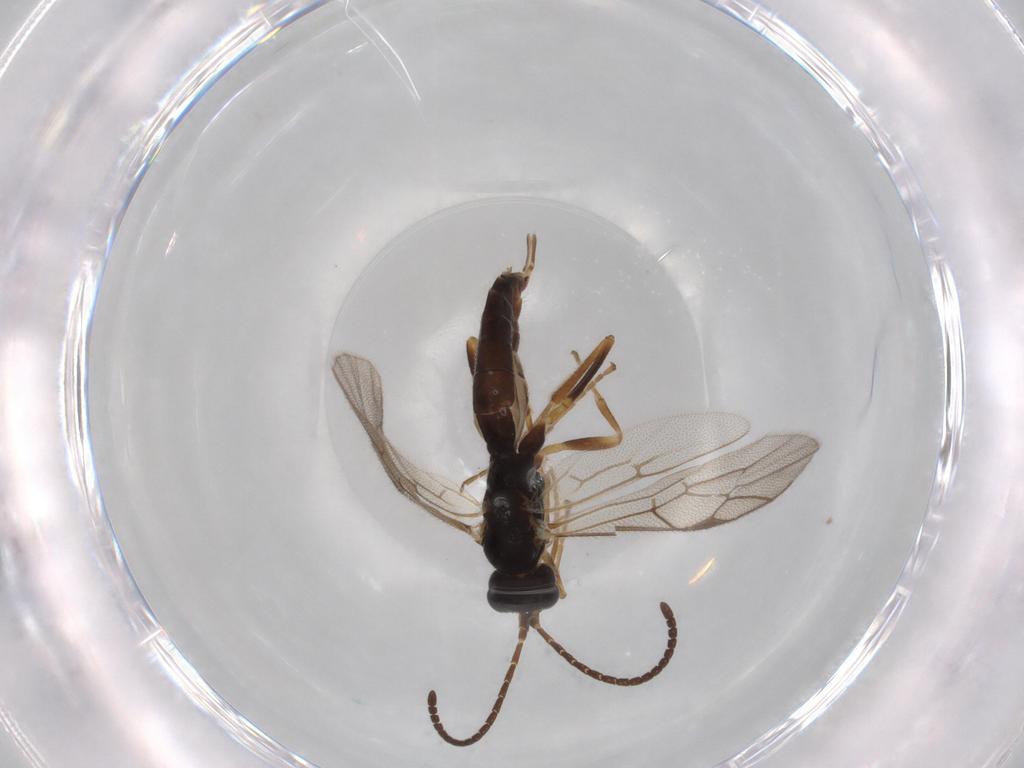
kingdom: Animalia
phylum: Arthropoda
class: Insecta
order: Hymenoptera
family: Ichneumonidae
